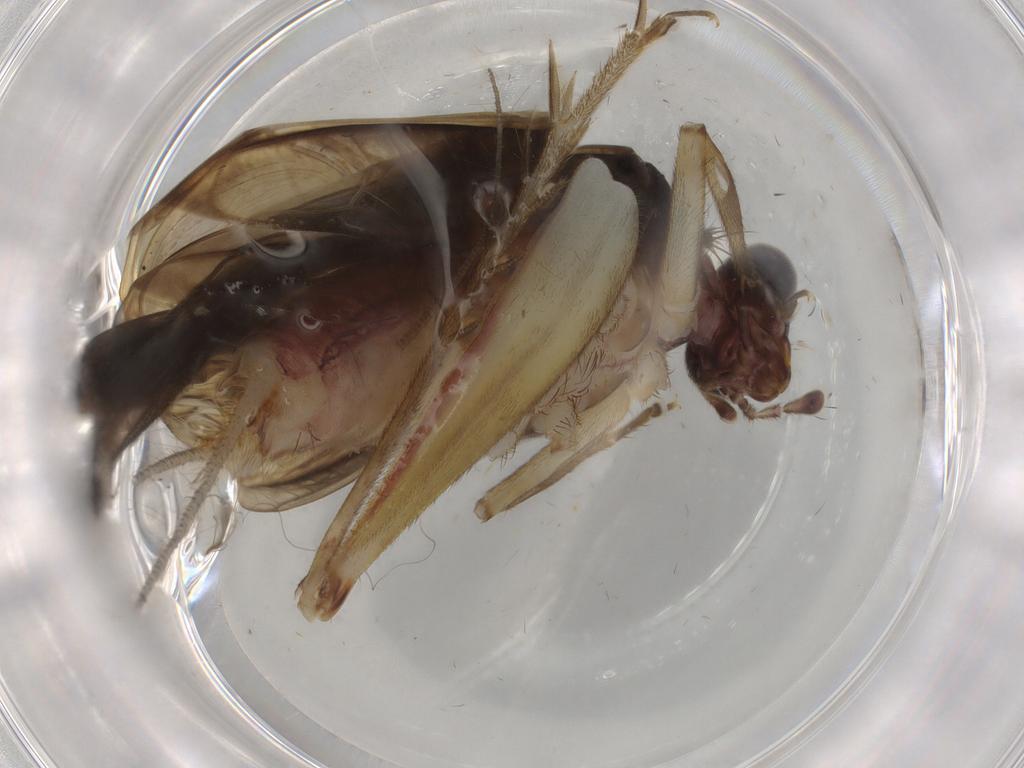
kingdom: Animalia
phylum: Arthropoda
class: Insecta
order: Orthoptera
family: Trigonidiidae
